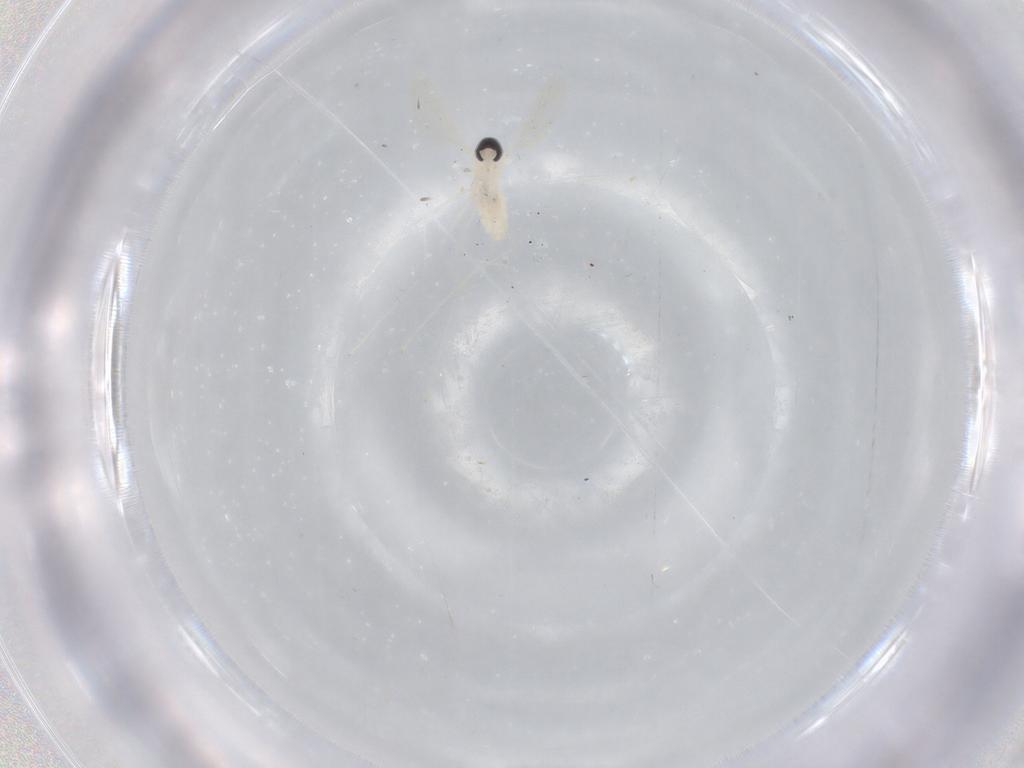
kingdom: Animalia
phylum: Arthropoda
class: Insecta
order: Diptera
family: Cecidomyiidae
